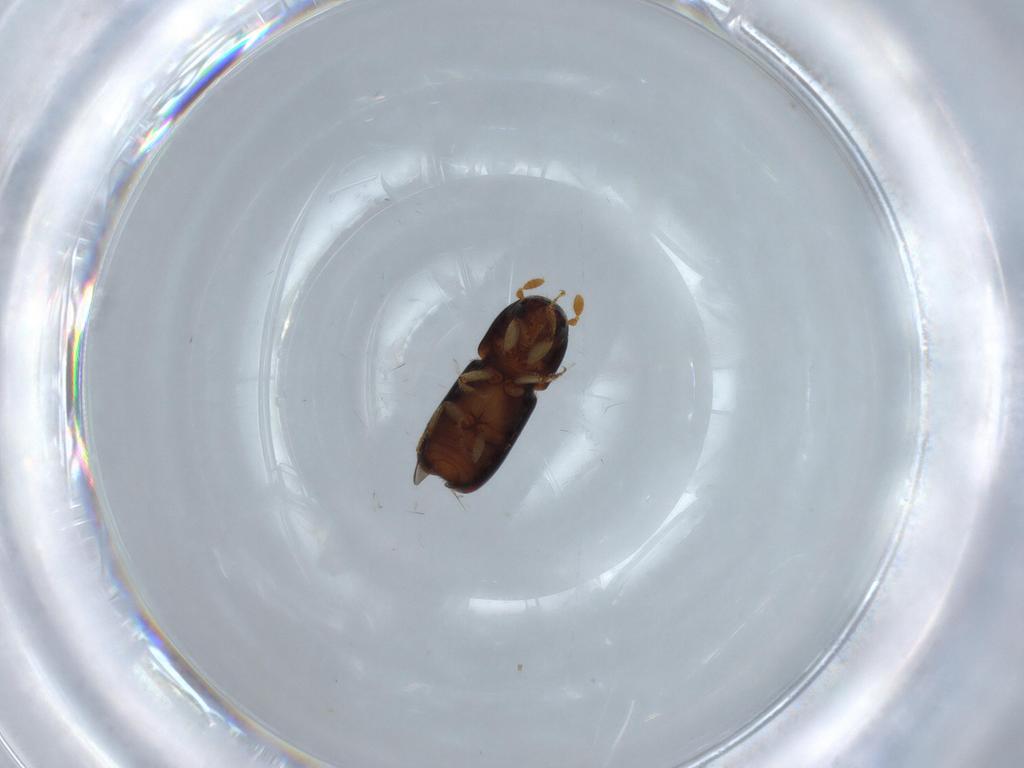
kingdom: Animalia
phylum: Arthropoda
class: Insecta
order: Coleoptera
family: Curculionidae
